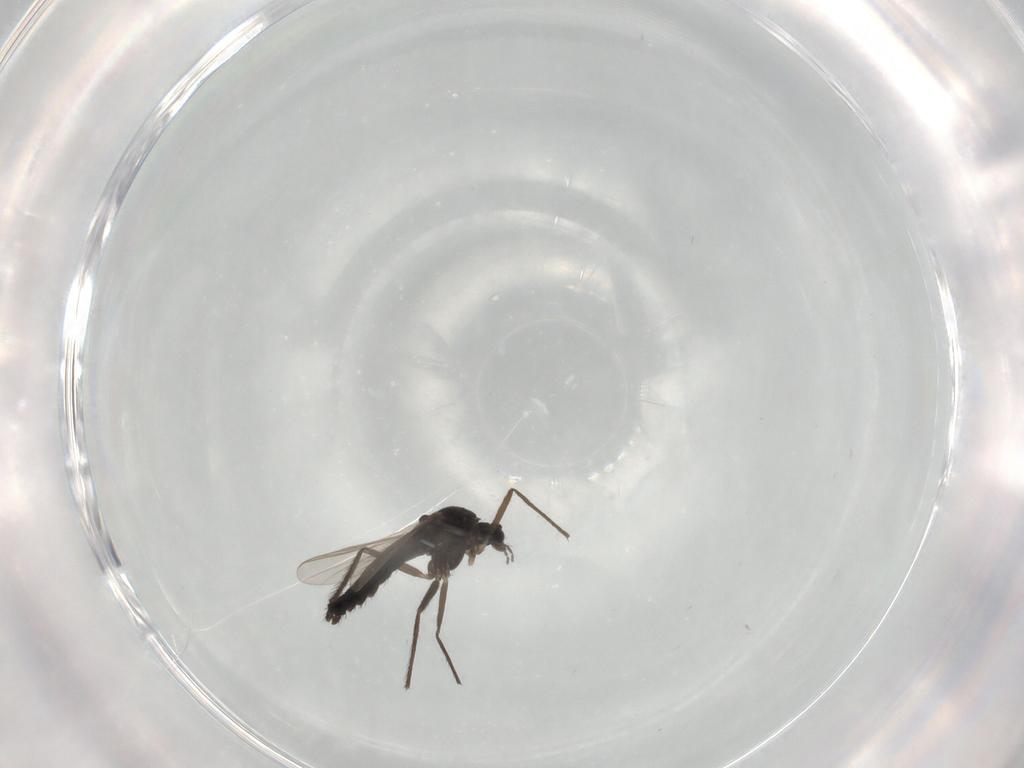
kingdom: Animalia
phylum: Arthropoda
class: Insecta
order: Diptera
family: Chironomidae
